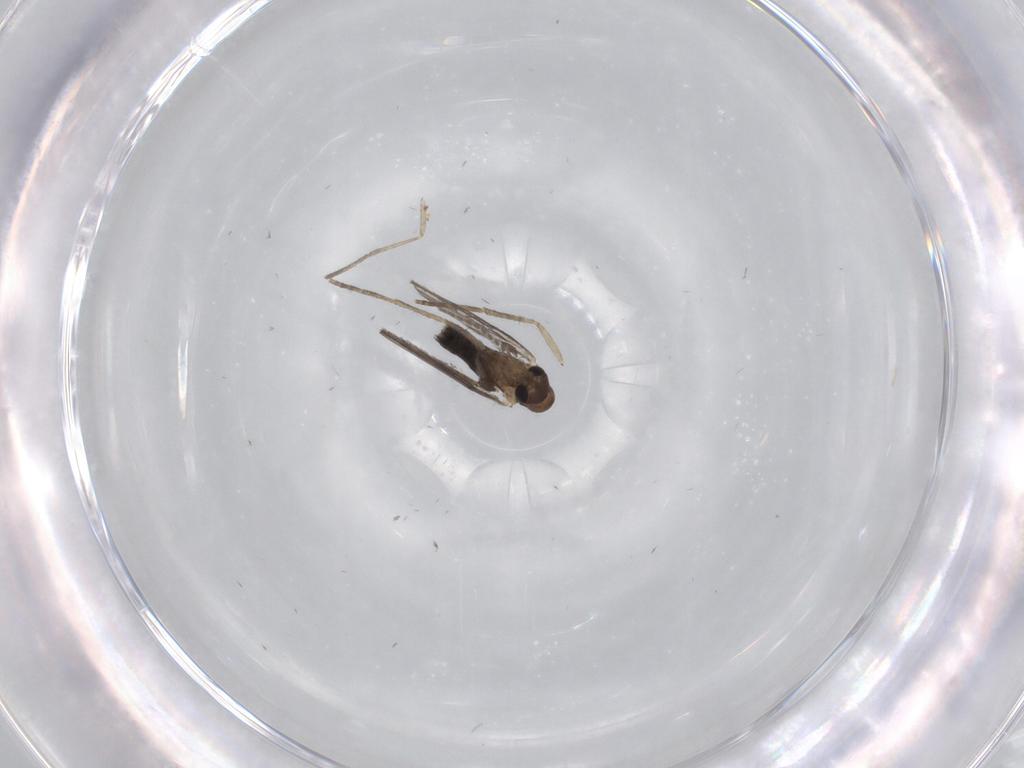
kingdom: Animalia
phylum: Arthropoda
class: Insecta
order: Diptera
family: Psychodidae
